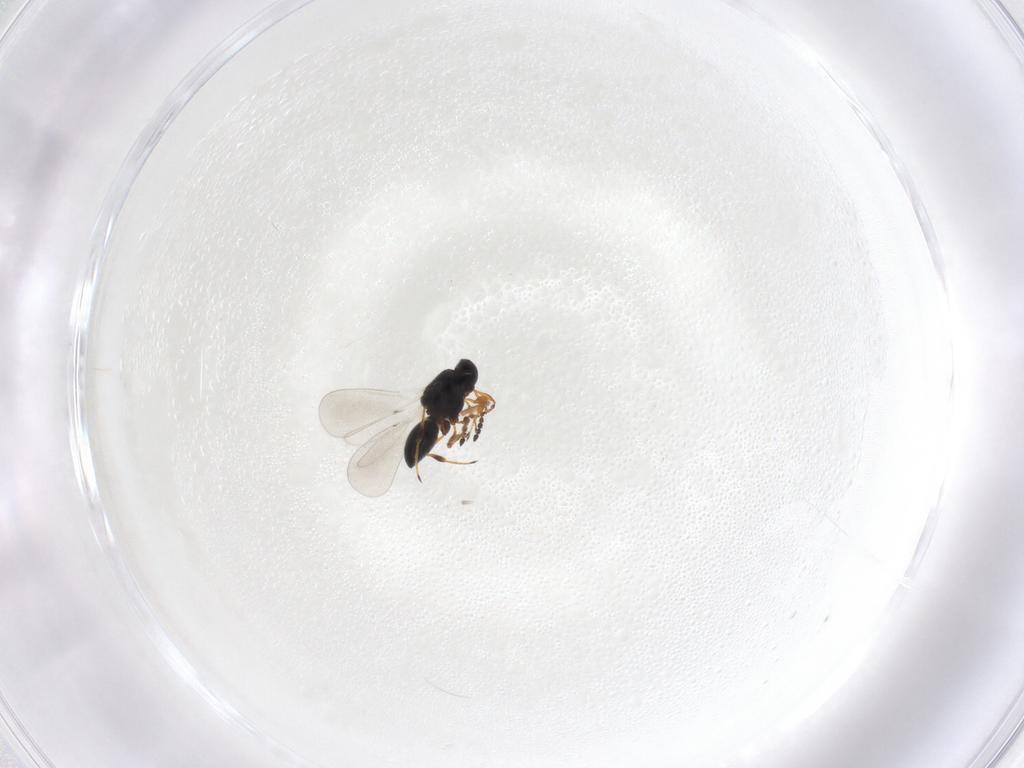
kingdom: Animalia
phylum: Arthropoda
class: Insecta
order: Hymenoptera
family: Platygastridae
